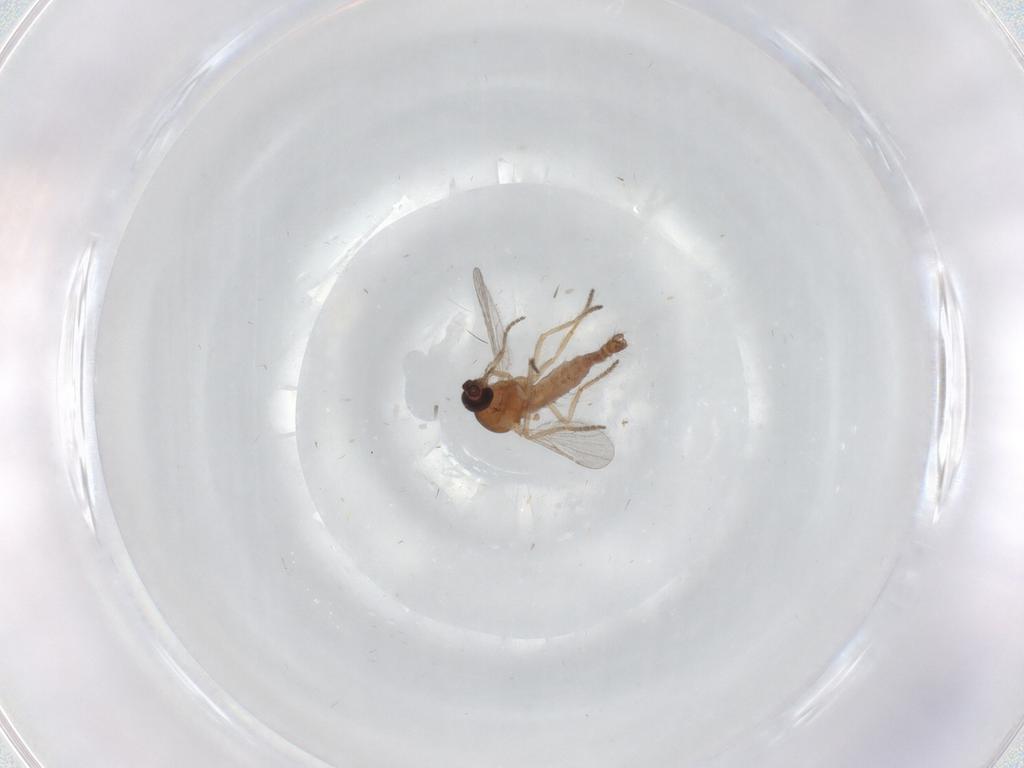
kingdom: Animalia
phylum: Arthropoda
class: Insecta
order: Diptera
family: Ceratopogonidae
